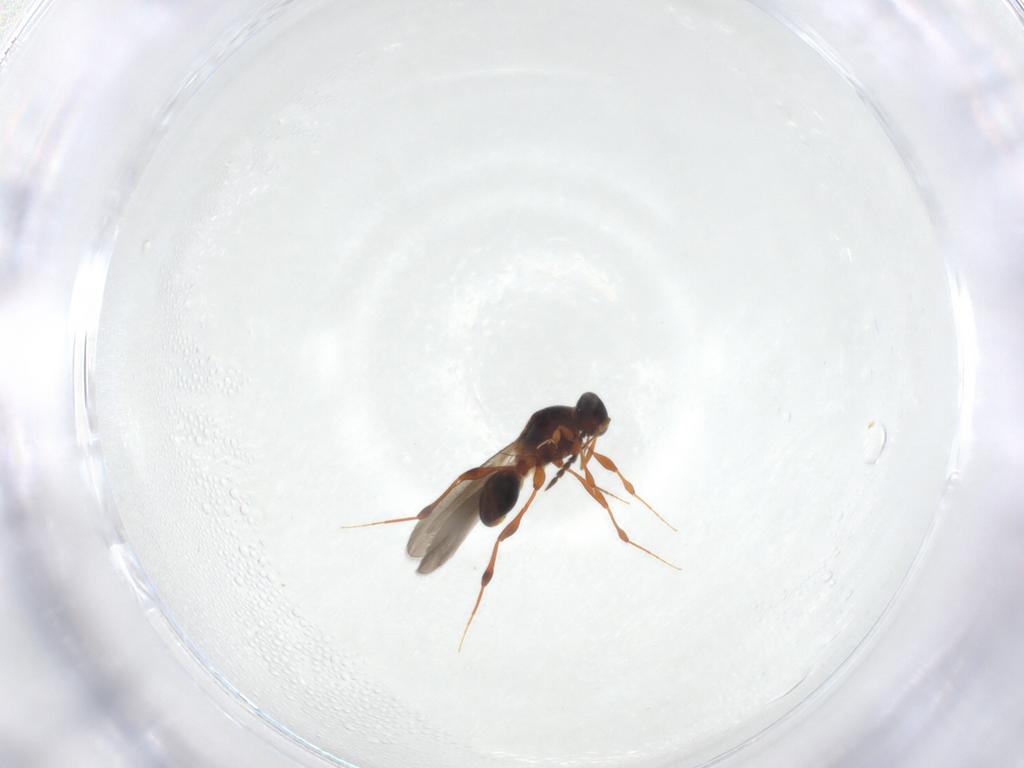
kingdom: Animalia
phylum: Arthropoda
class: Insecta
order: Hymenoptera
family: Platygastridae
